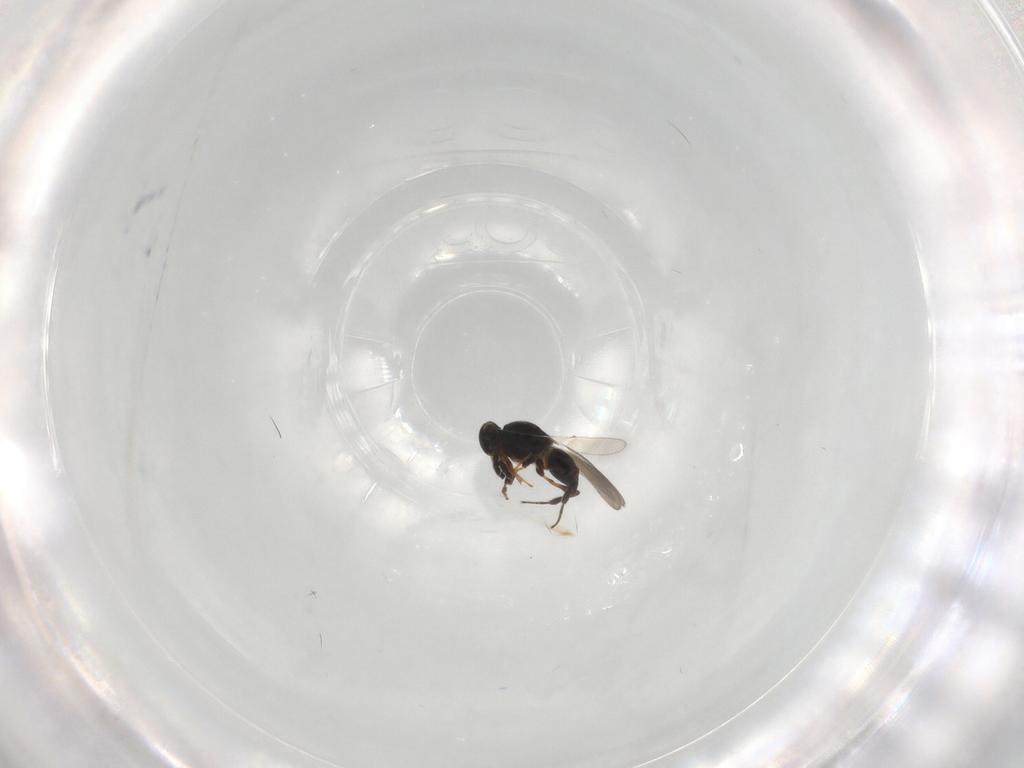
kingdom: Animalia
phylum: Arthropoda
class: Insecta
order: Hymenoptera
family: Platygastridae
